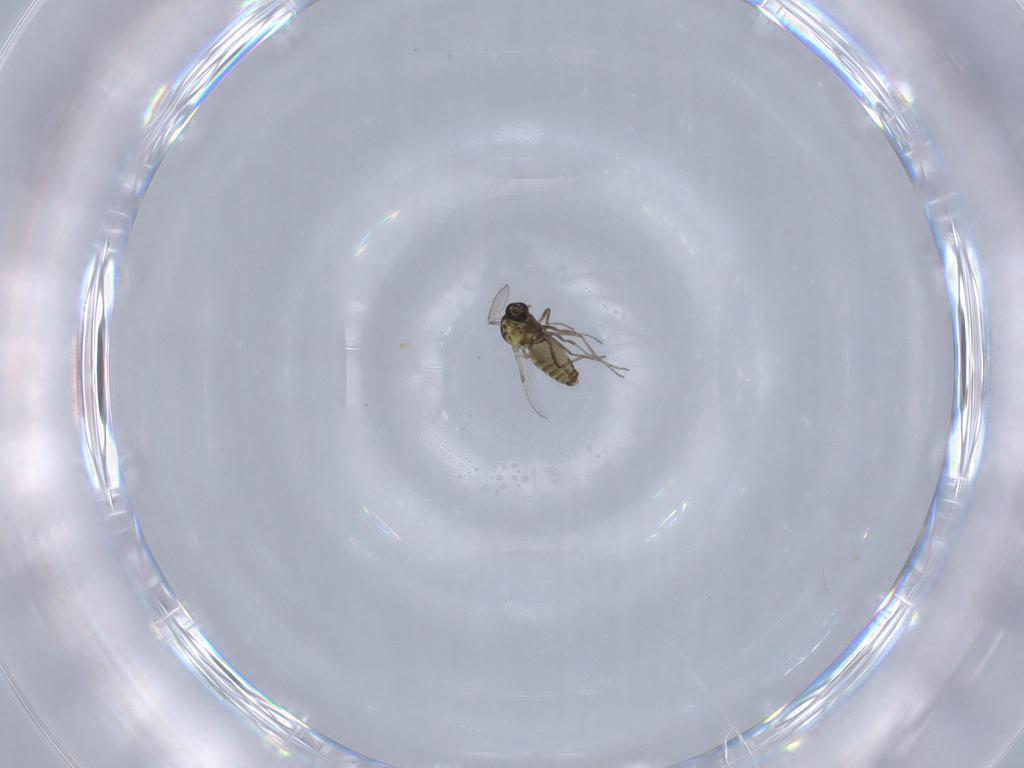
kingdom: Animalia
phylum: Arthropoda
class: Insecta
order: Diptera
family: Ceratopogonidae
